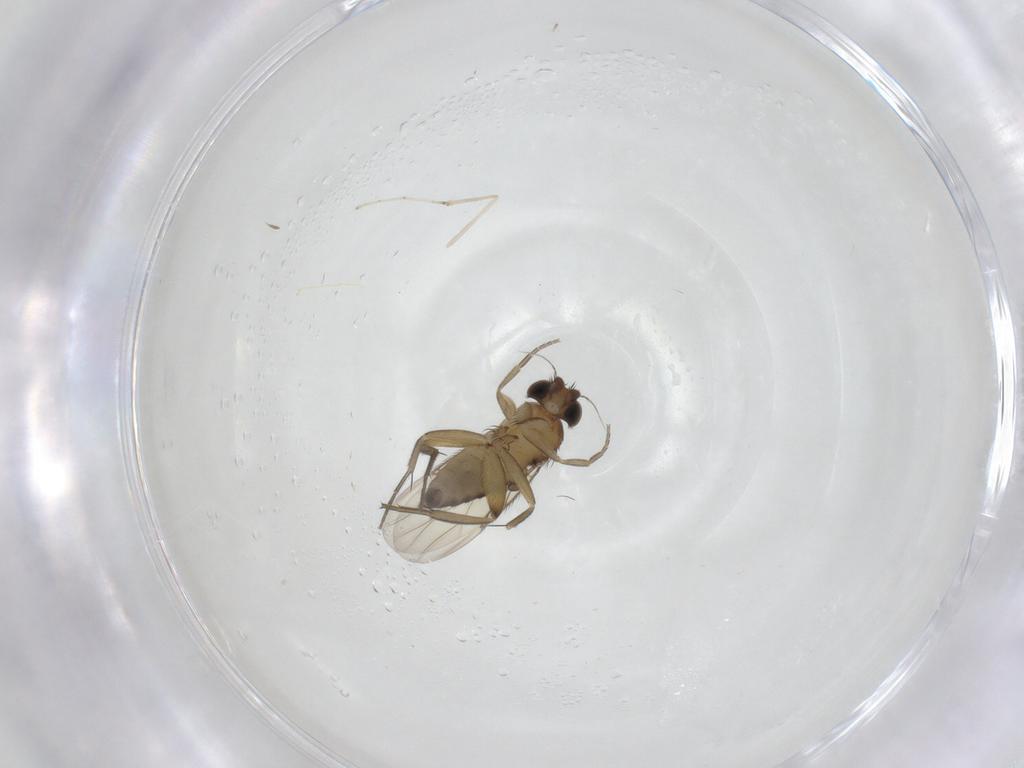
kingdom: Animalia
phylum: Arthropoda
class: Insecta
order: Diptera
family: Phoridae
